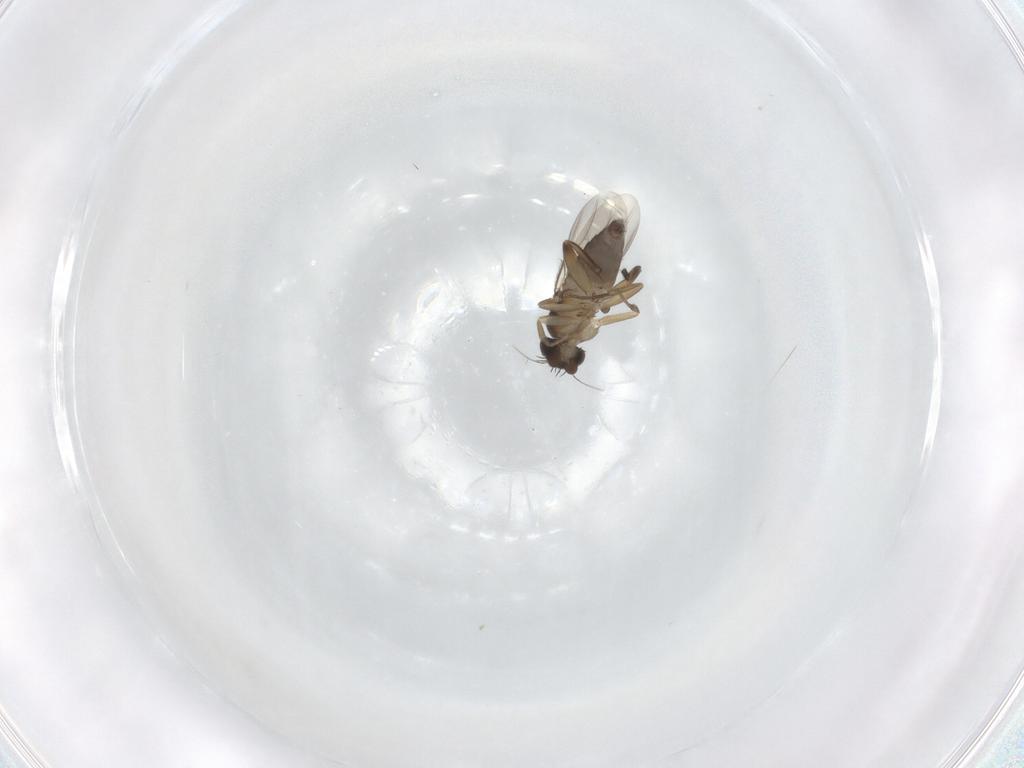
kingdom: Animalia
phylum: Arthropoda
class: Insecta
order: Diptera
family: Phoridae
